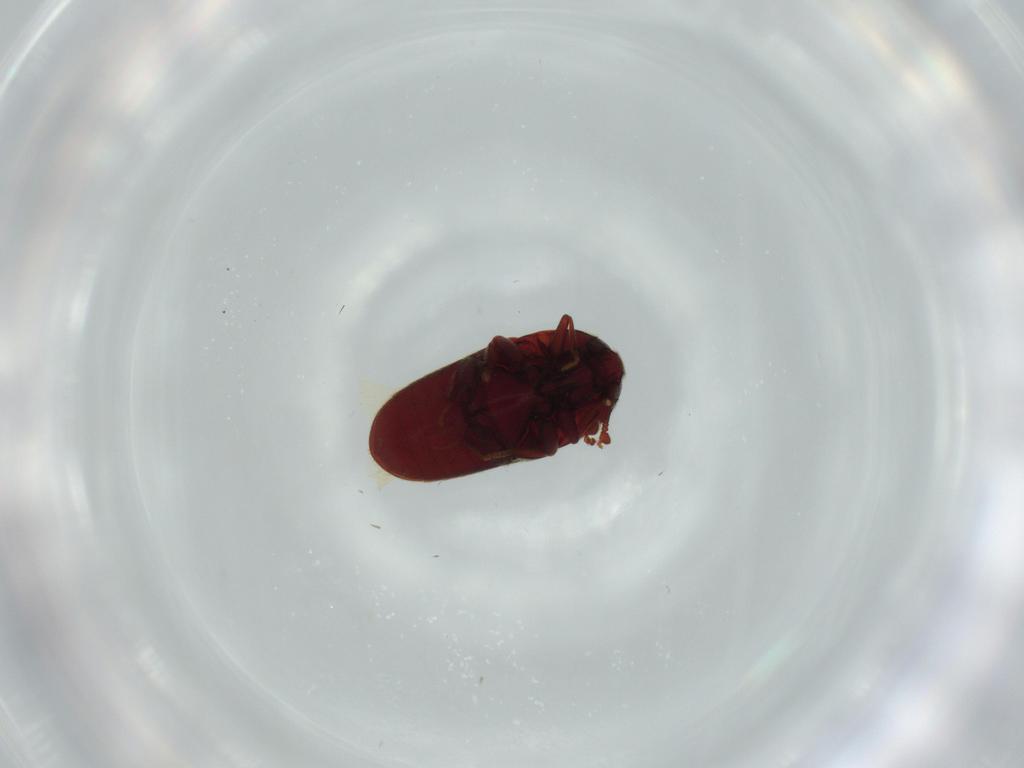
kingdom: Animalia
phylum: Arthropoda
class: Insecta
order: Coleoptera
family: Throscidae
